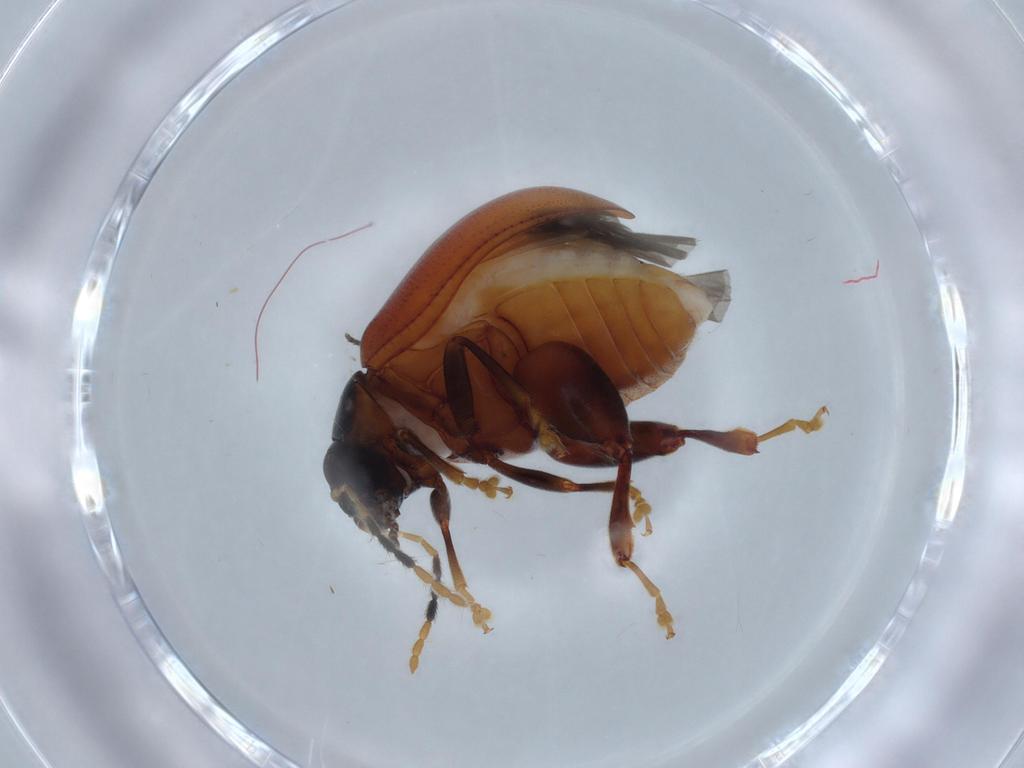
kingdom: Animalia
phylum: Arthropoda
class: Insecta
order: Coleoptera
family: Chrysomelidae
